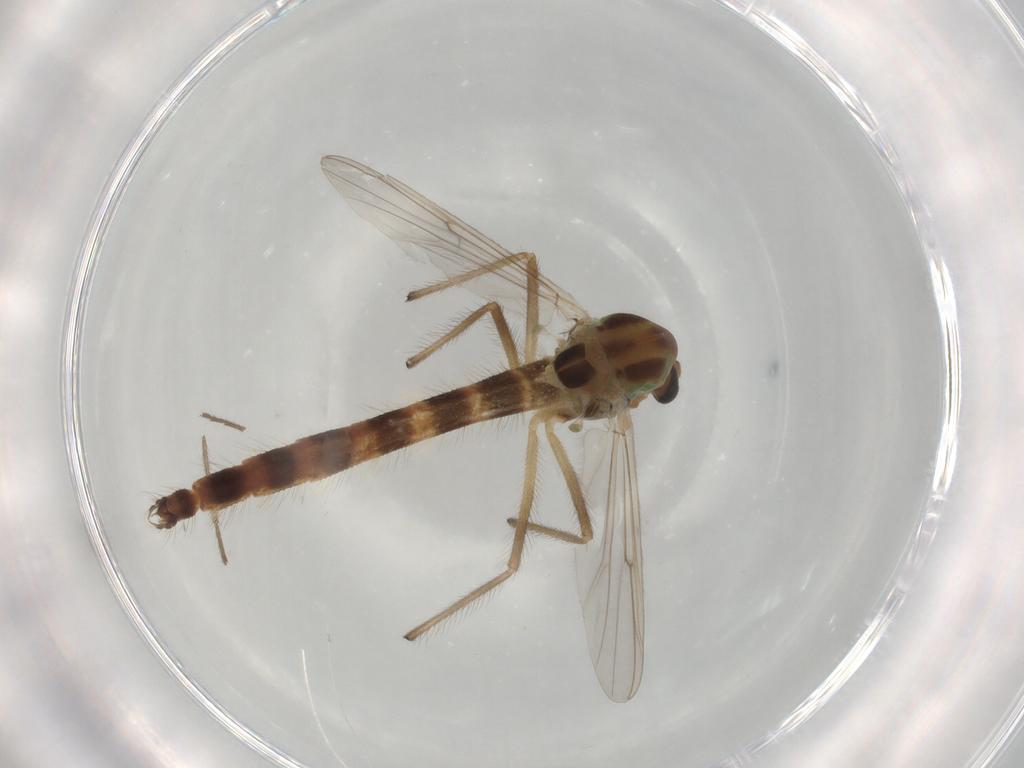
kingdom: Animalia
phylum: Arthropoda
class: Insecta
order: Diptera
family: Chironomidae
